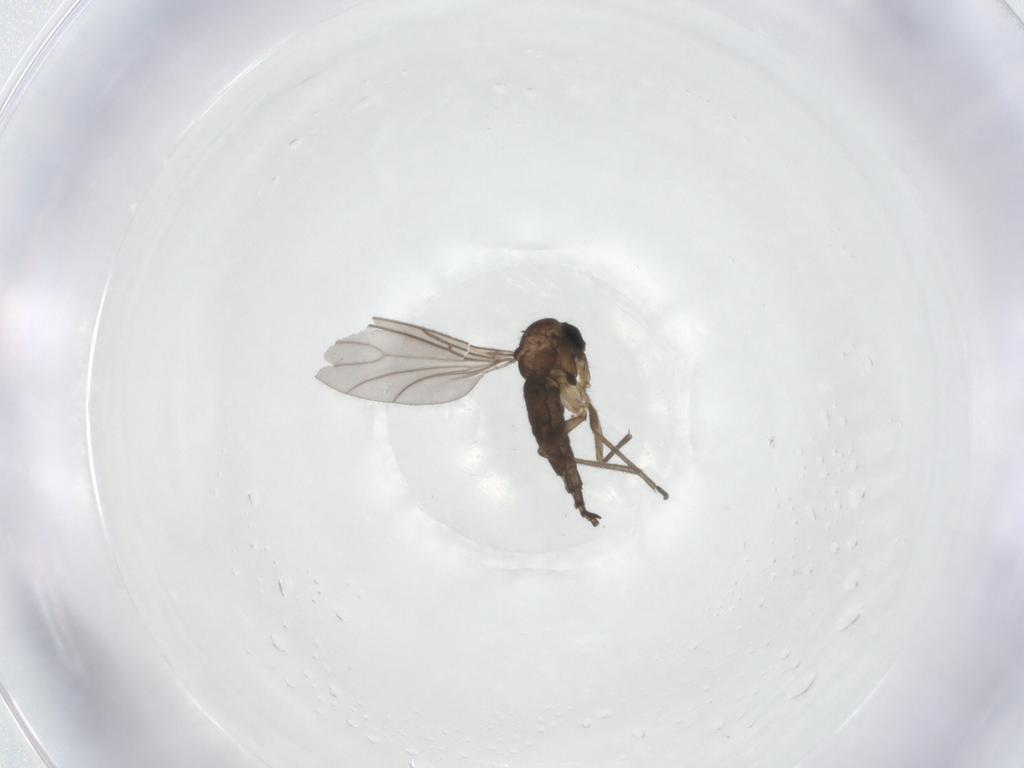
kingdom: Animalia
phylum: Arthropoda
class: Insecta
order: Diptera
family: Sciaridae
